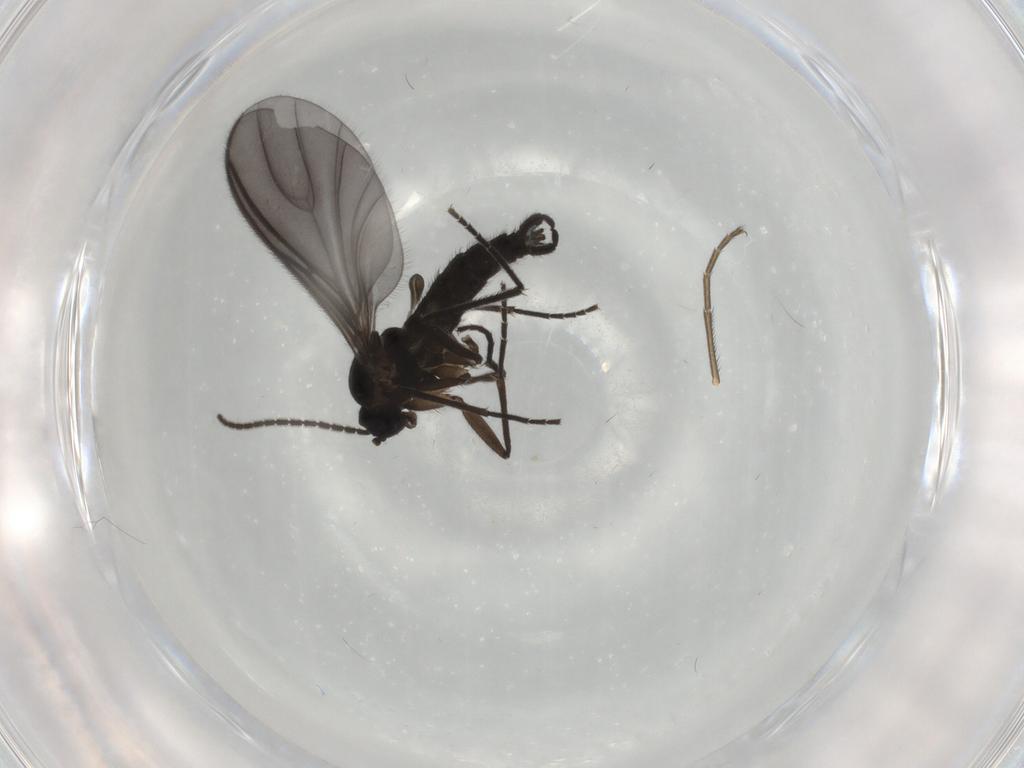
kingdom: Animalia
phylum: Arthropoda
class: Insecta
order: Diptera
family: Sciaridae
